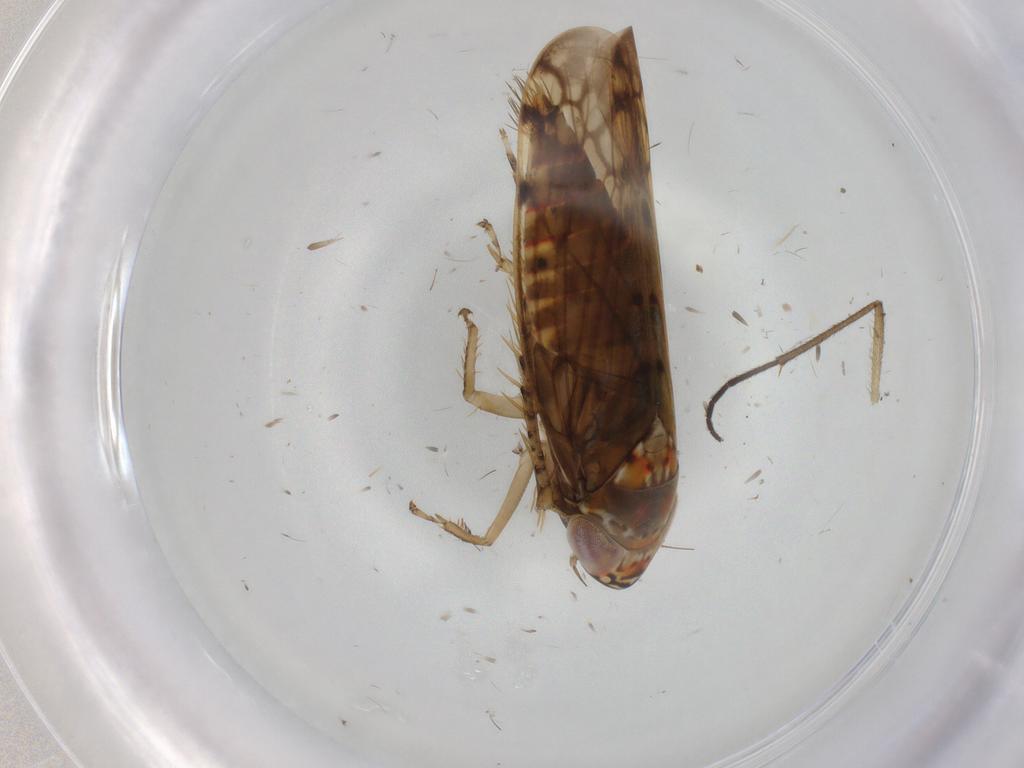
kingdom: Animalia
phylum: Arthropoda
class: Insecta
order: Hemiptera
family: Cicadellidae
